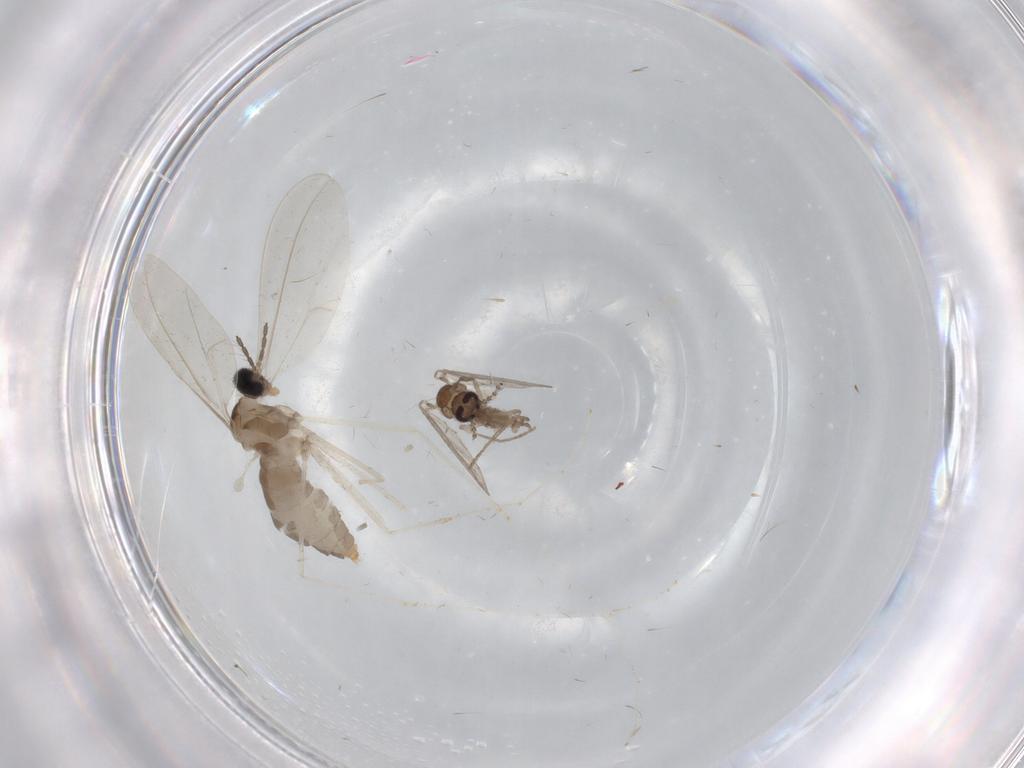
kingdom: Animalia
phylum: Arthropoda
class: Insecta
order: Diptera
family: Cecidomyiidae
